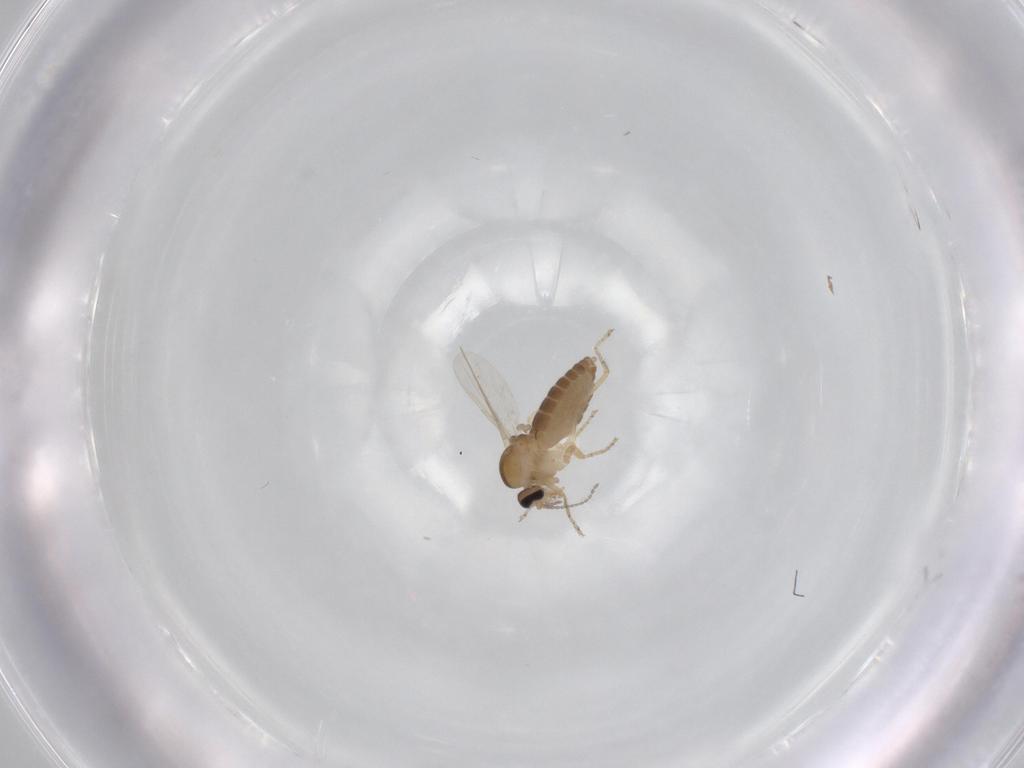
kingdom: Animalia
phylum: Arthropoda
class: Insecta
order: Diptera
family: Ceratopogonidae
